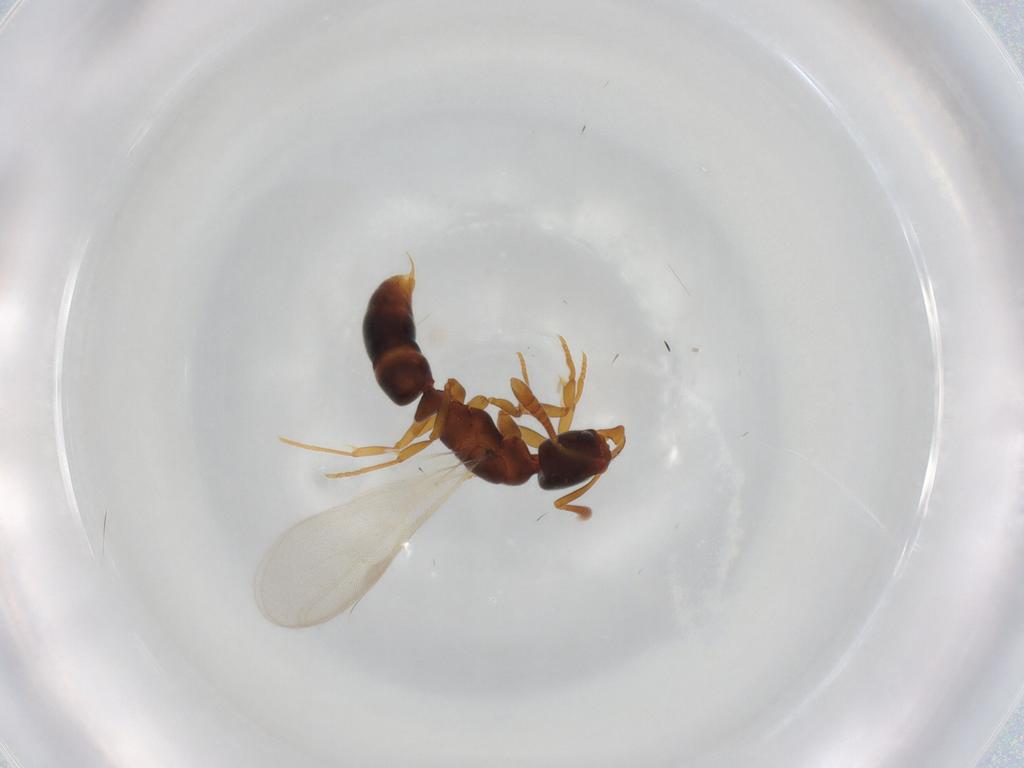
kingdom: Animalia
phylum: Arthropoda
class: Insecta
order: Hymenoptera
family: Formicidae
